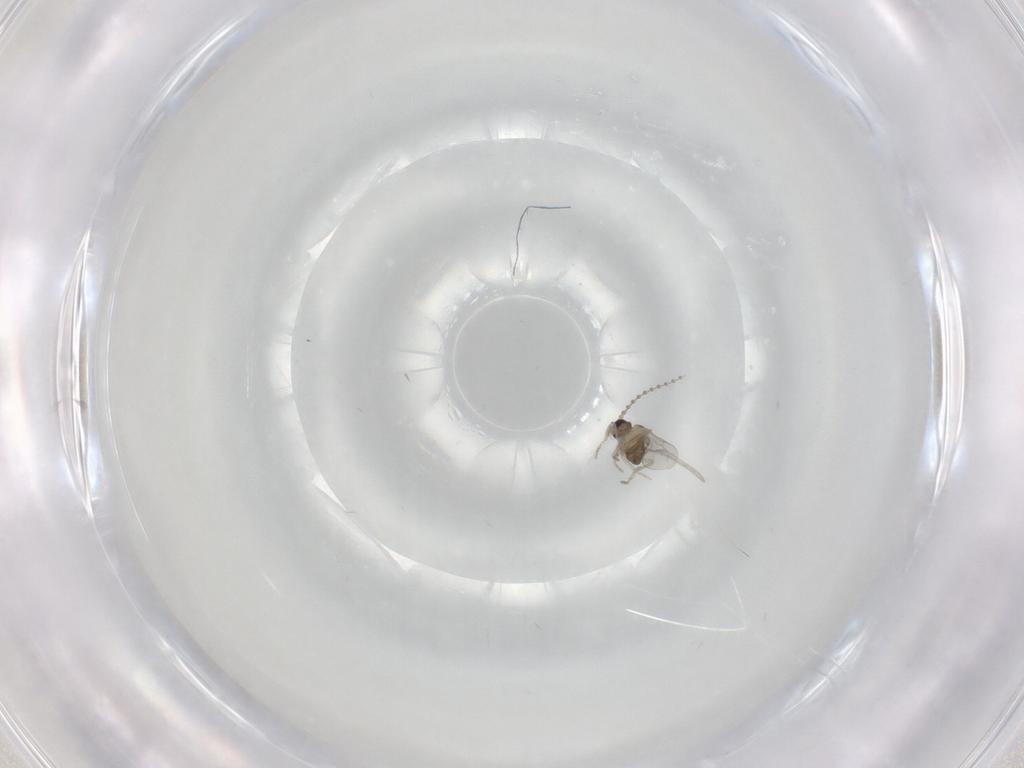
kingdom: Animalia
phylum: Arthropoda
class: Insecta
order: Diptera
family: Cecidomyiidae
